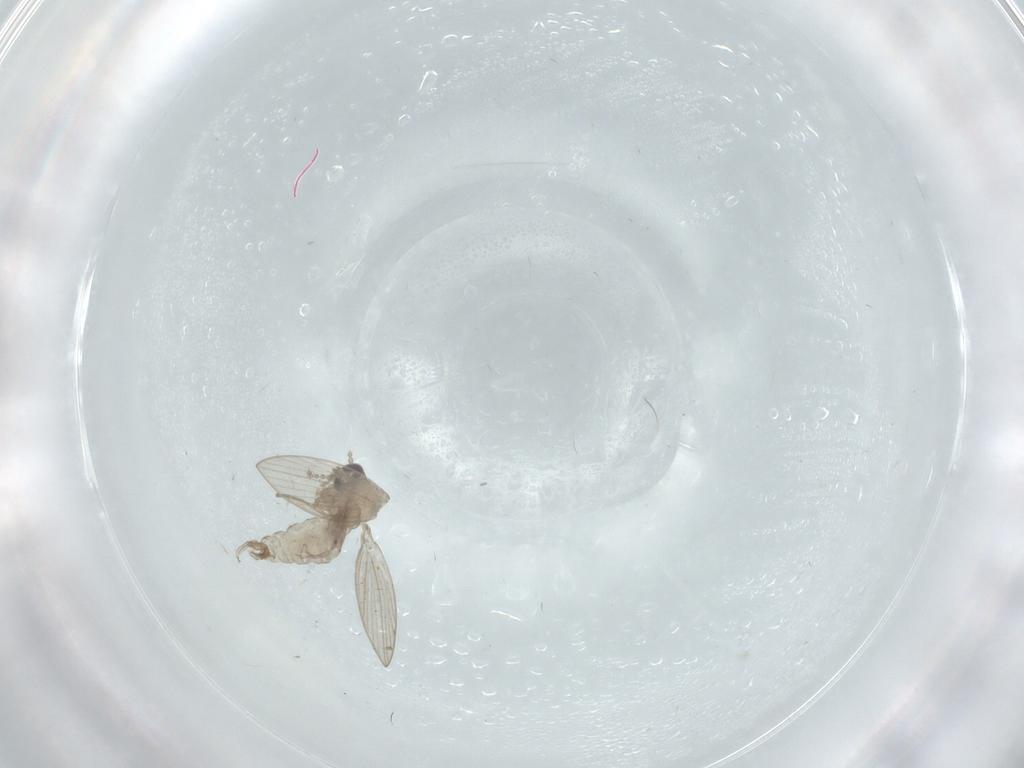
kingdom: Animalia
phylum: Arthropoda
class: Insecta
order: Diptera
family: Psychodidae
